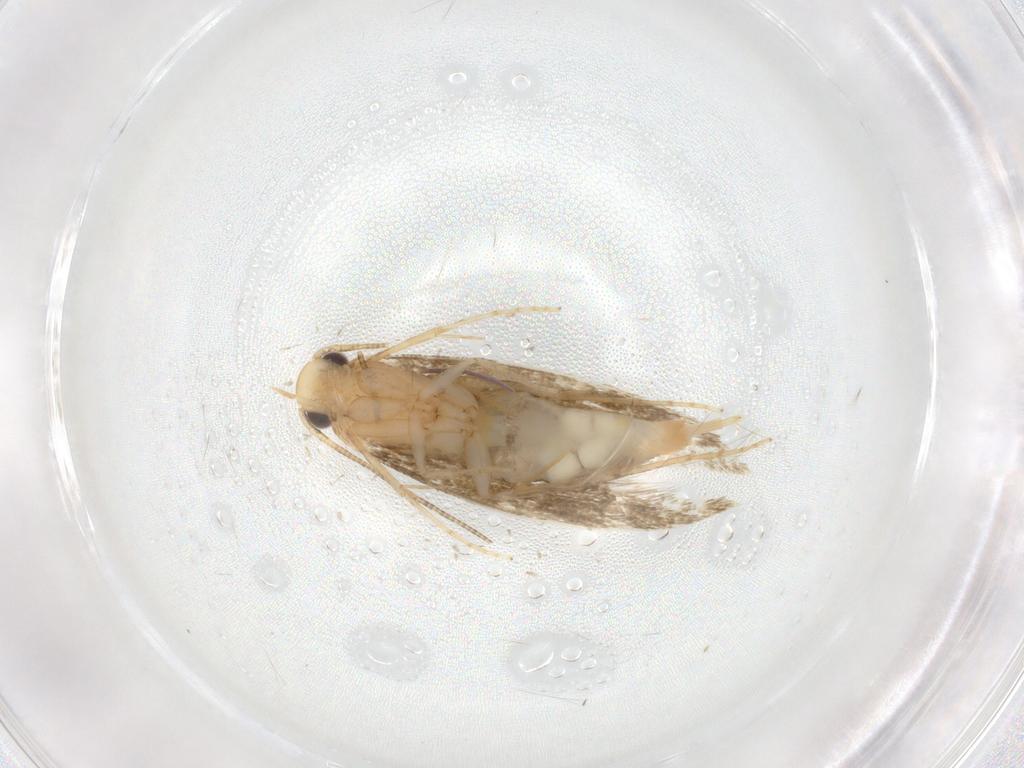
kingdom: Animalia
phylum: Arthropoda
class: Insecta
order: Lepidoptera
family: Tineidae
